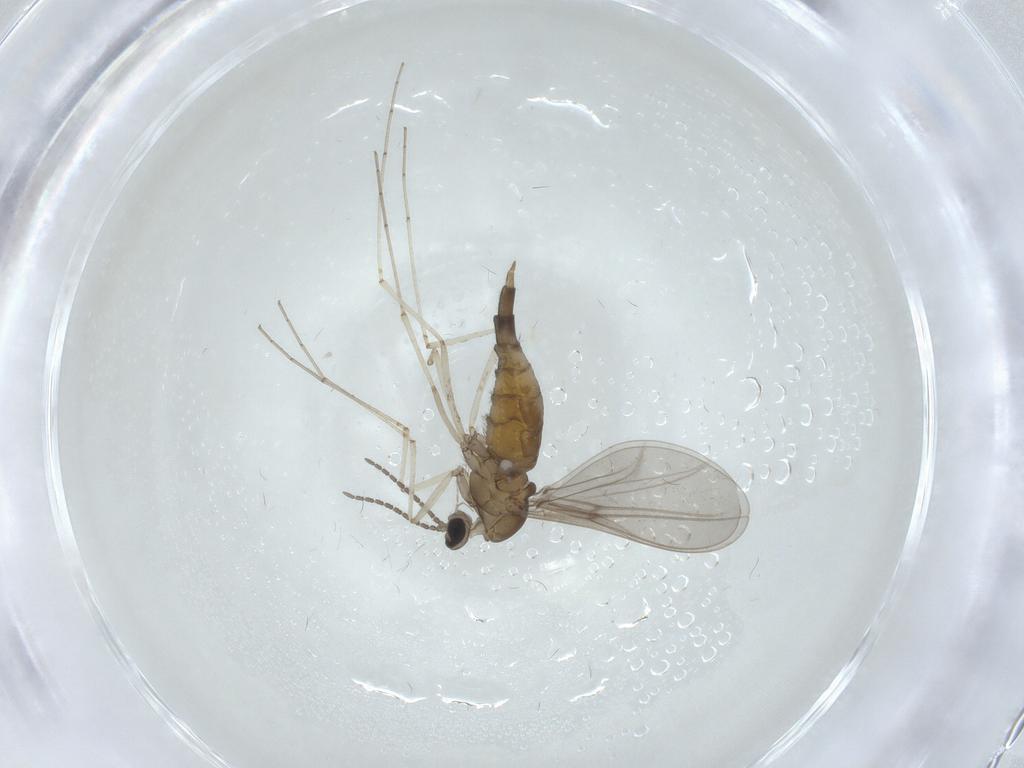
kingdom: Animalia
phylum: Arthropoda
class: Insecta
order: Diptera
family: Cecidomyiidae
